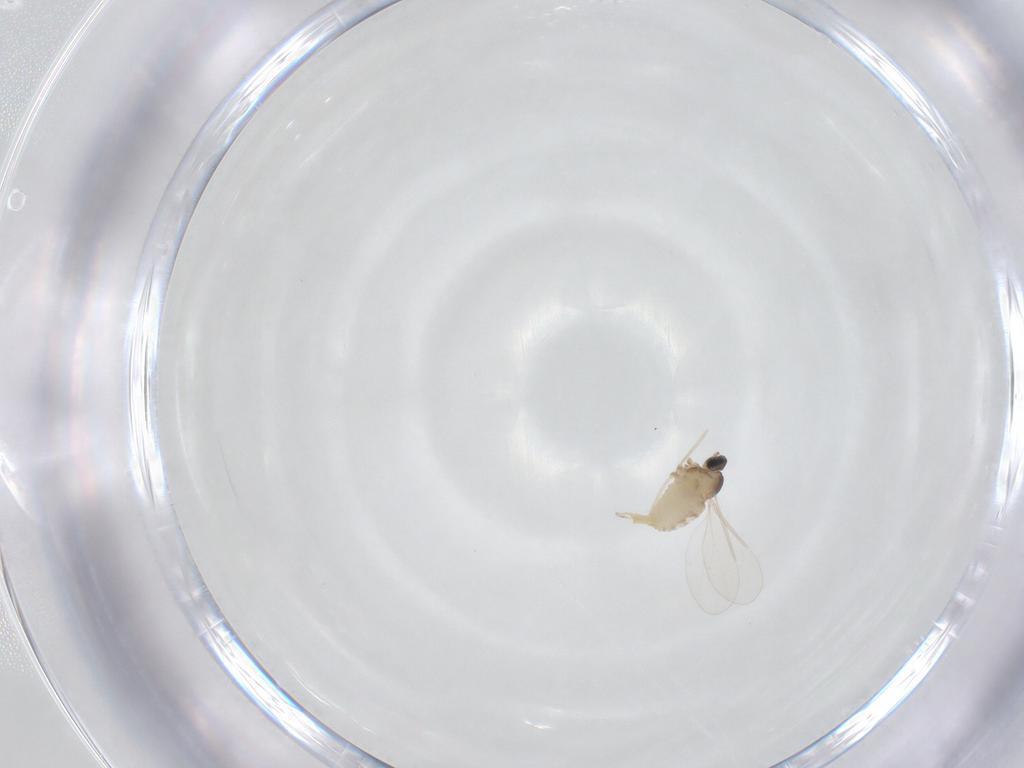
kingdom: Animalia
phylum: Arthropoda
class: Insecta
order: Diptera
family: Cecidomyiidae
